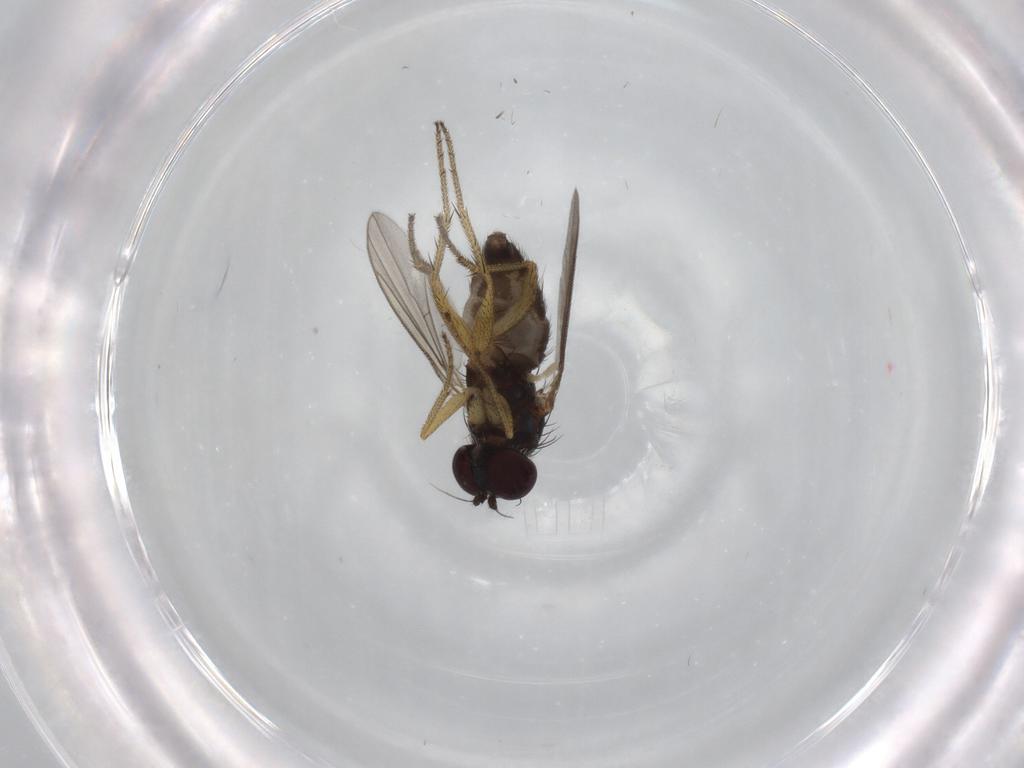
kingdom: Animalia
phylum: Arthropoda
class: Insecta
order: Diptera
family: Dolichopodidae
